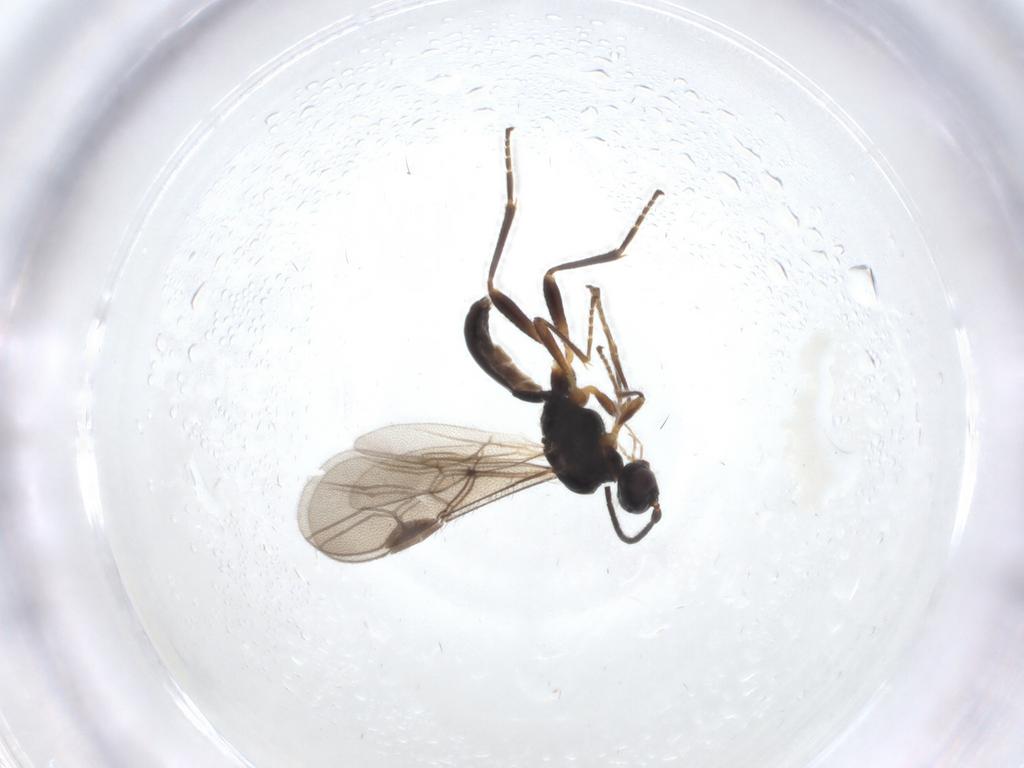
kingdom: Animalia
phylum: Arthropoda
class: Insecta
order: Hymenoptera
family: Braconidae
